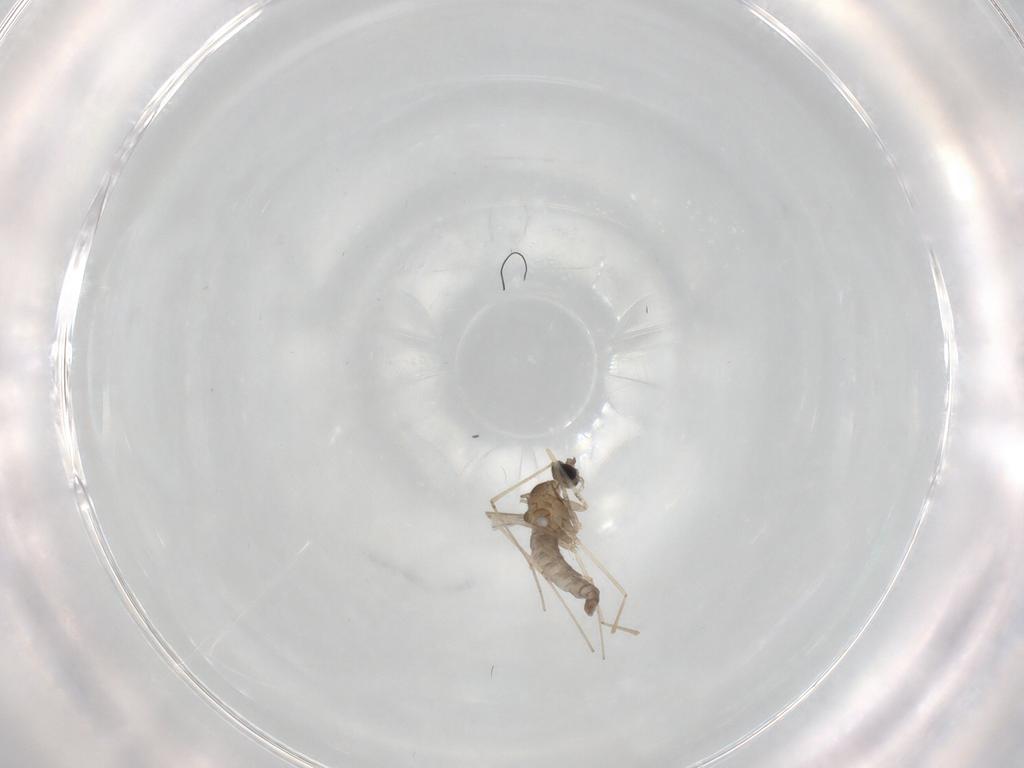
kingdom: Animalia
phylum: Arthropoda
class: Insecta
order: Diptera
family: Cecidomyiidae
